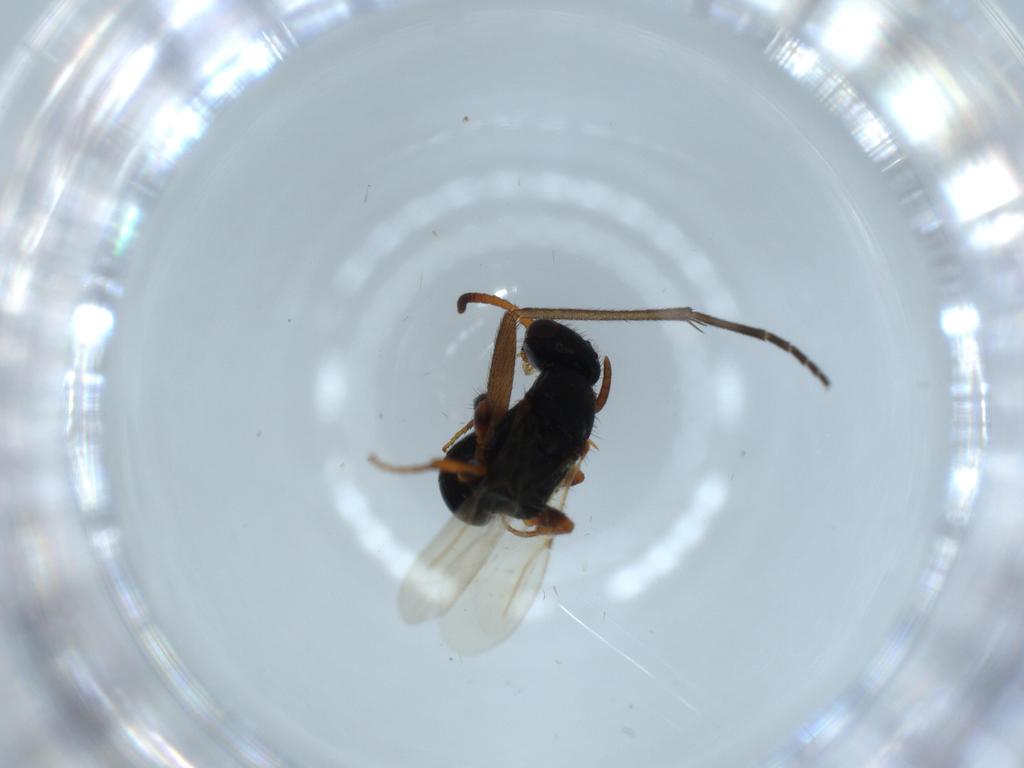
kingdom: Animalia
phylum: Arthropoda
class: Insecta
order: Hymenoptera
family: Bethylidae
